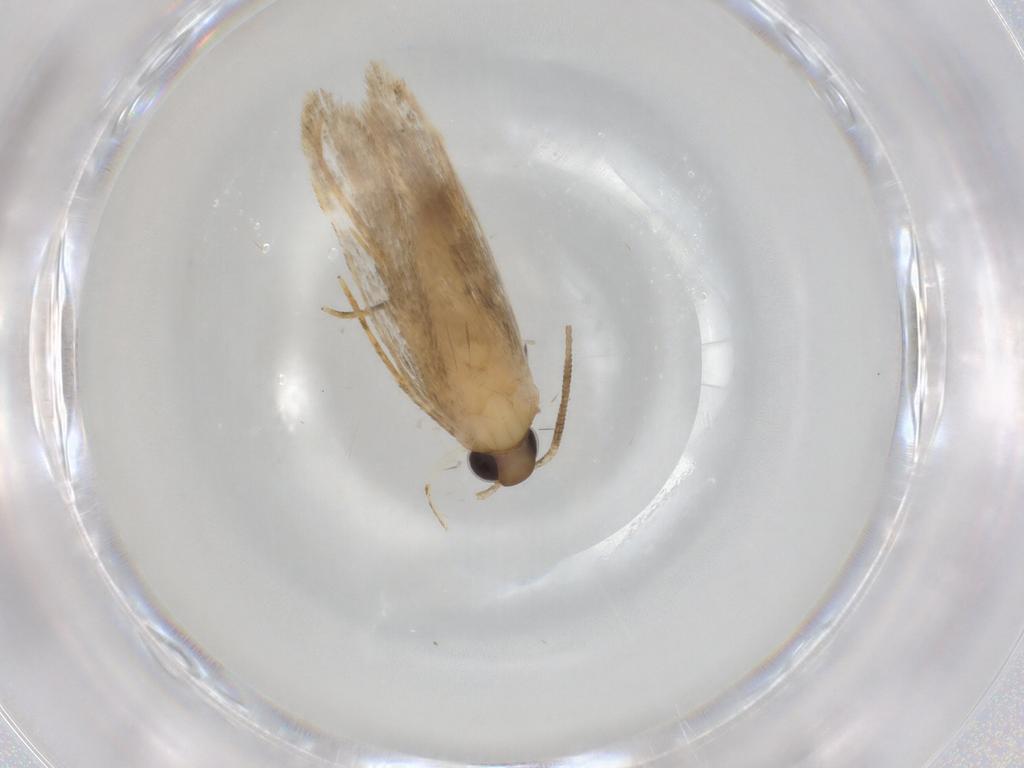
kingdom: Animalia
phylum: Arthropoda
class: Insecta
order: Lepidoptera
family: Autostichidae
